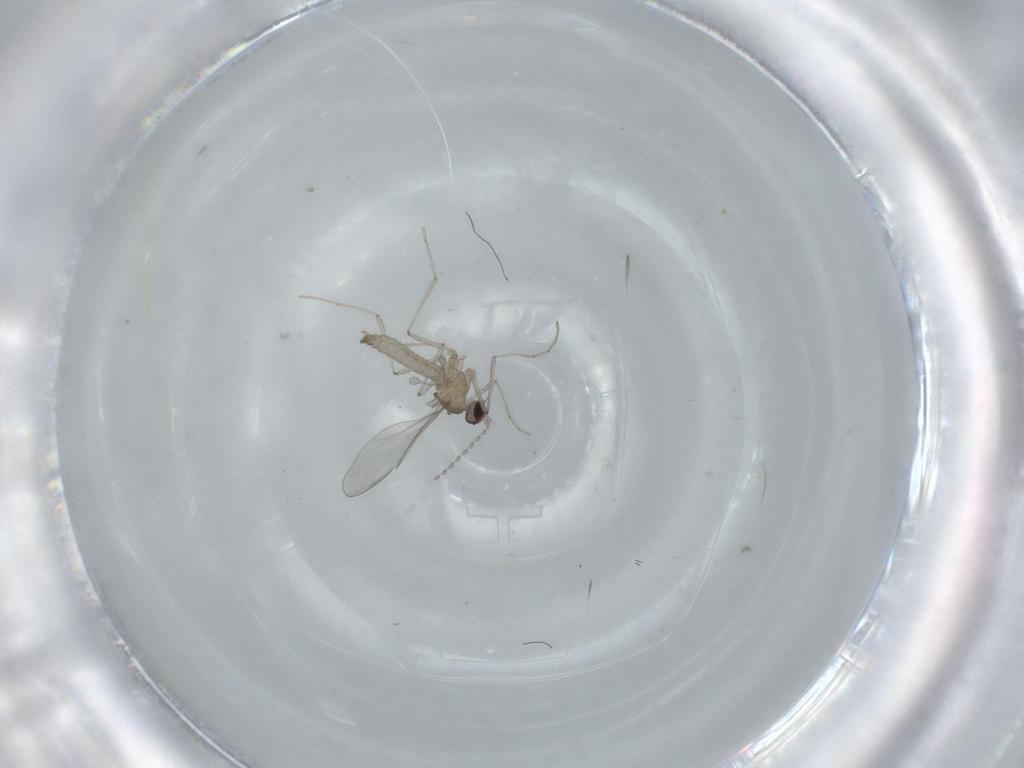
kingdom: Animalia
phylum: Arthropoda
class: Insecta
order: Diptera
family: Cecidomyiidae
